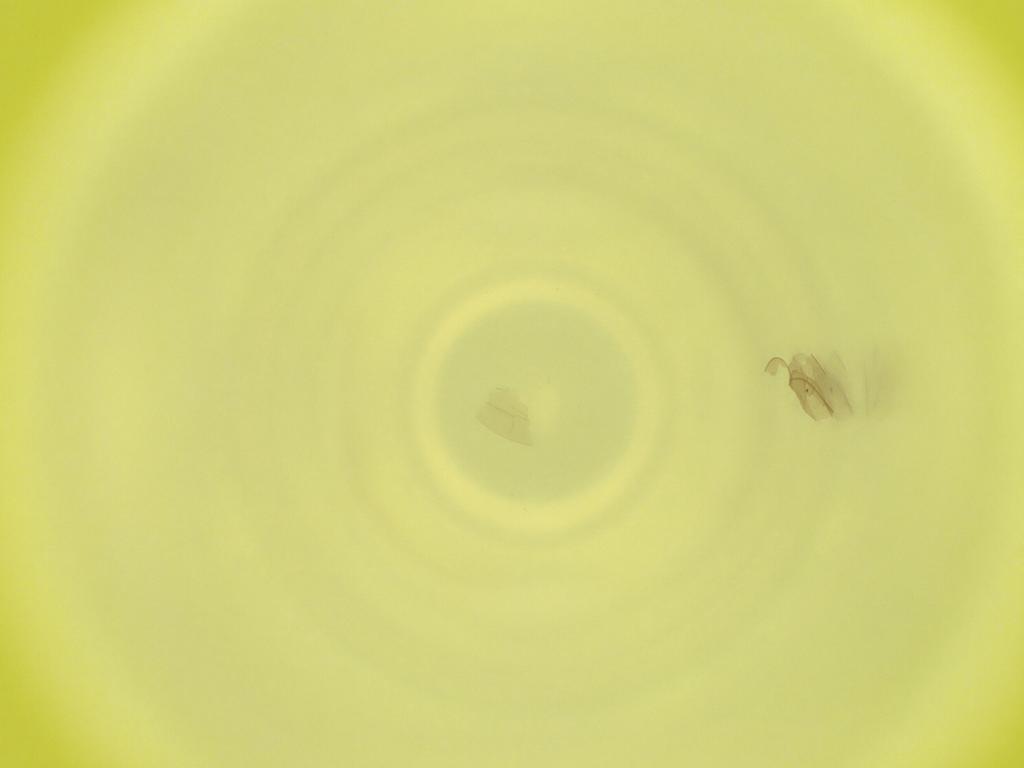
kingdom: Animalia
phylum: Arthropoda
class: Insecta
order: Diptera
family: Cecidomyiidae
